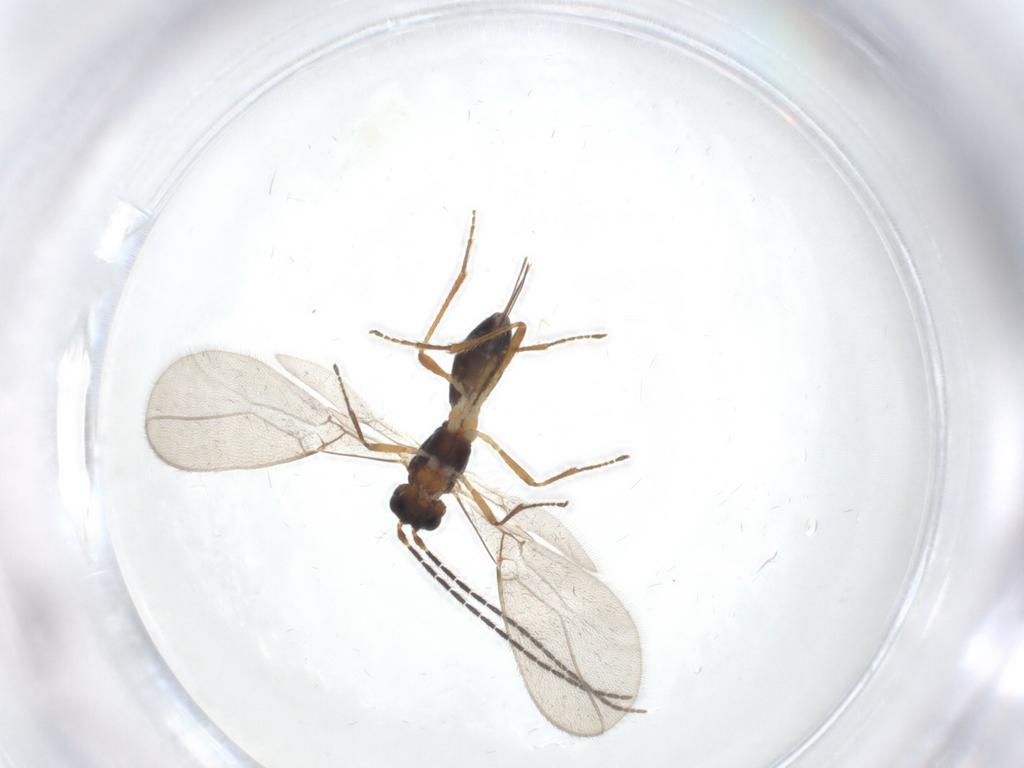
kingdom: Animalia
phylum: Arthropoda
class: Insecta
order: Hymenoptera
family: Braconidae
